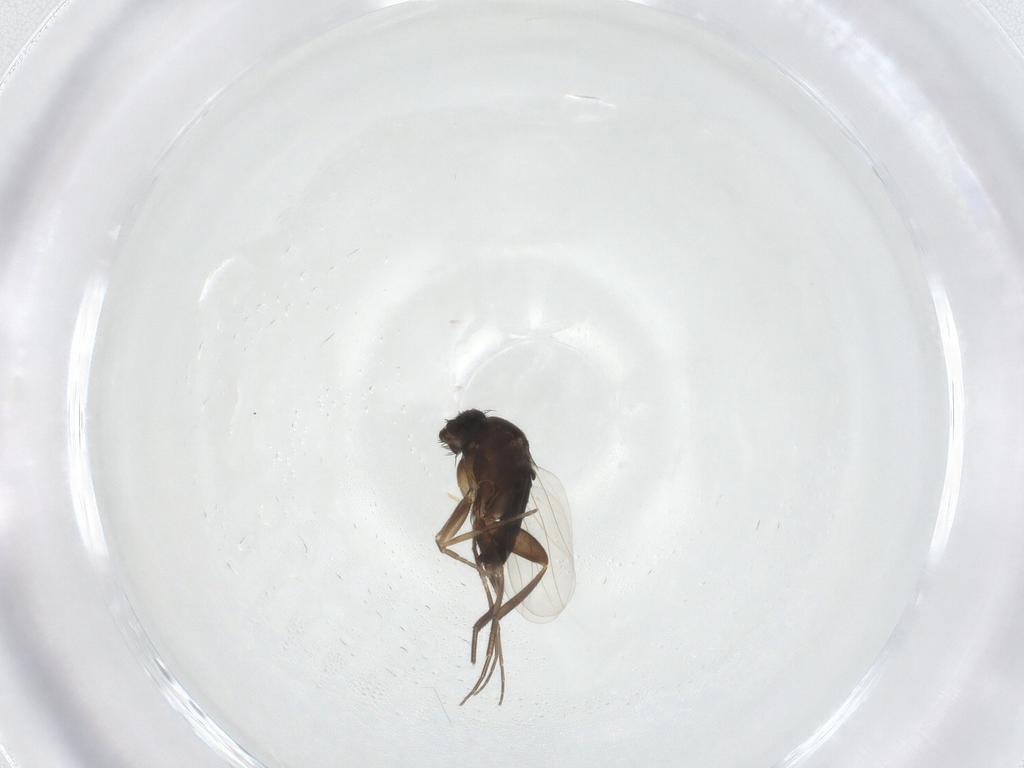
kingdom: Animalia
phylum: Arthropoda
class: Insecta
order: Diptera
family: Phoridae
